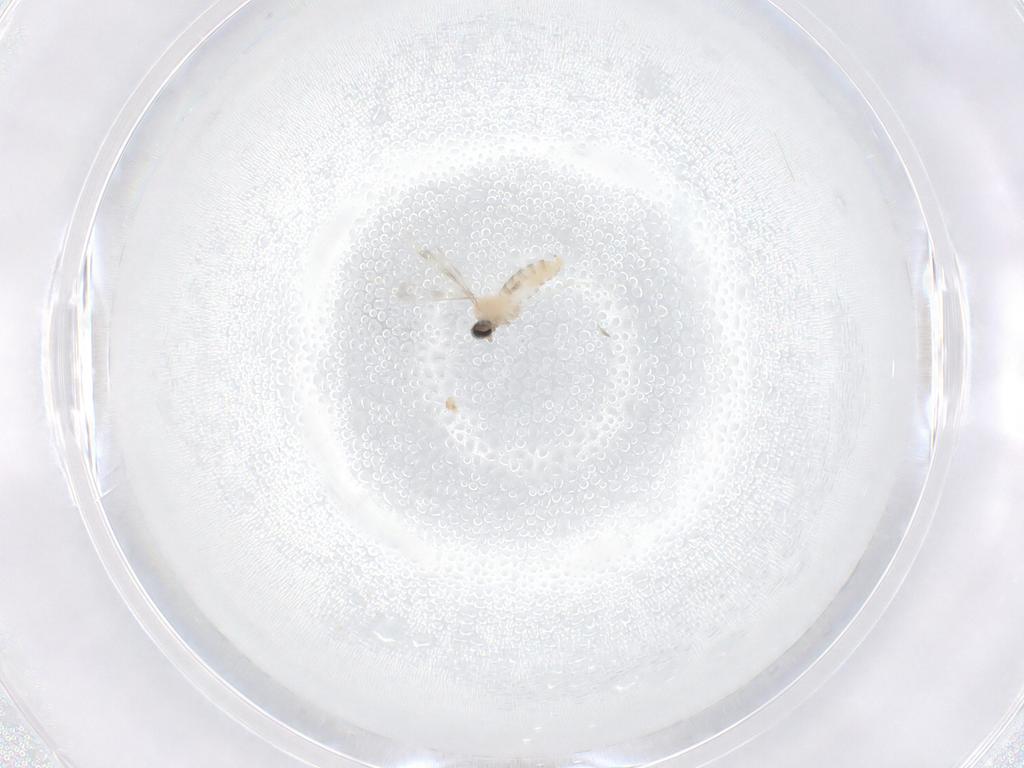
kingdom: Animalia
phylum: Arthropoda
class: Insecta
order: Diptera
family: Cecidomyiidae
